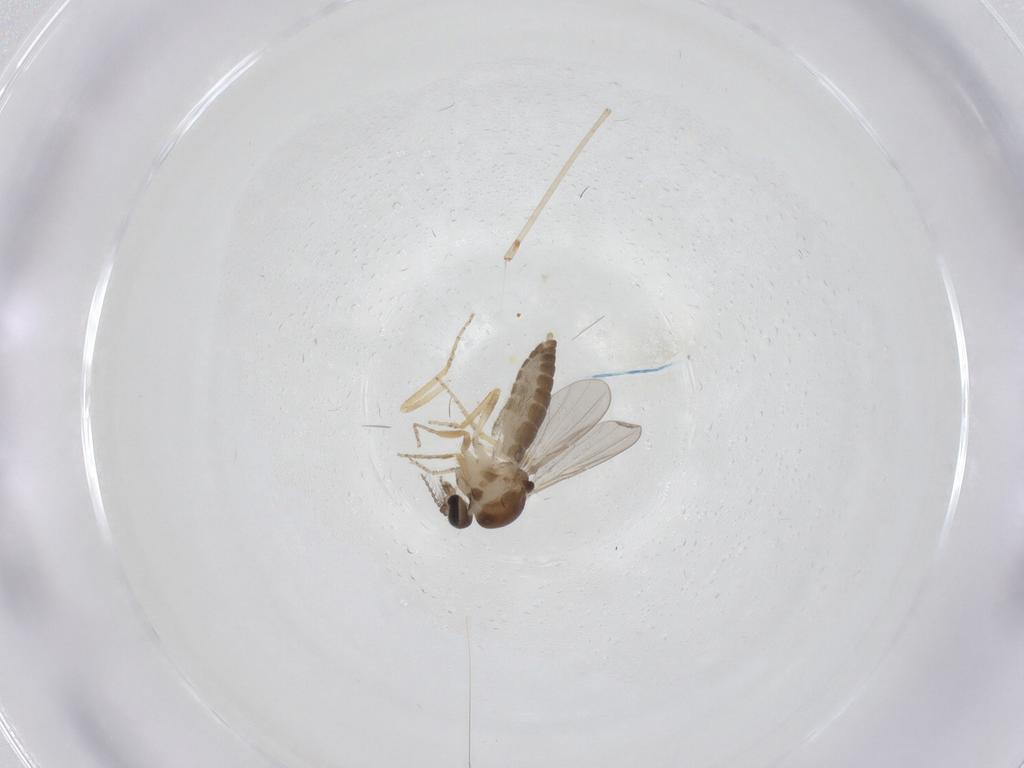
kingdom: Animalia
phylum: Arthropoda
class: Insecta
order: Diptera
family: Ceratopogonidae
